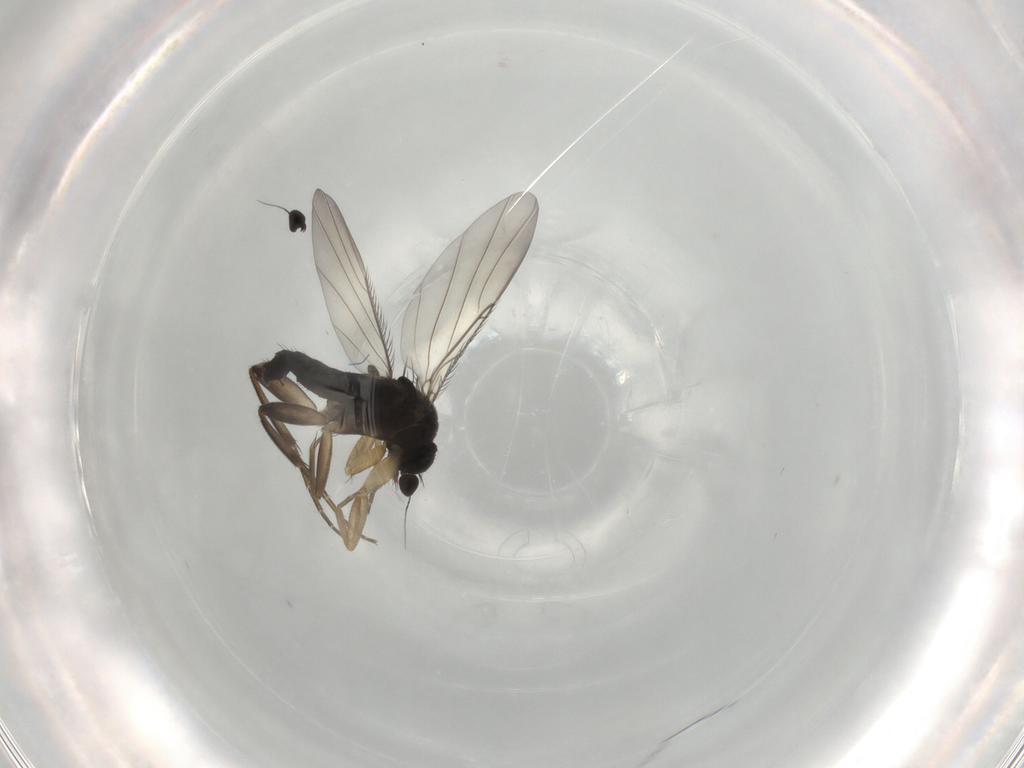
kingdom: Animalia
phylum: Arthropoda
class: Insecta
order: Diptera
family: Phoridae
